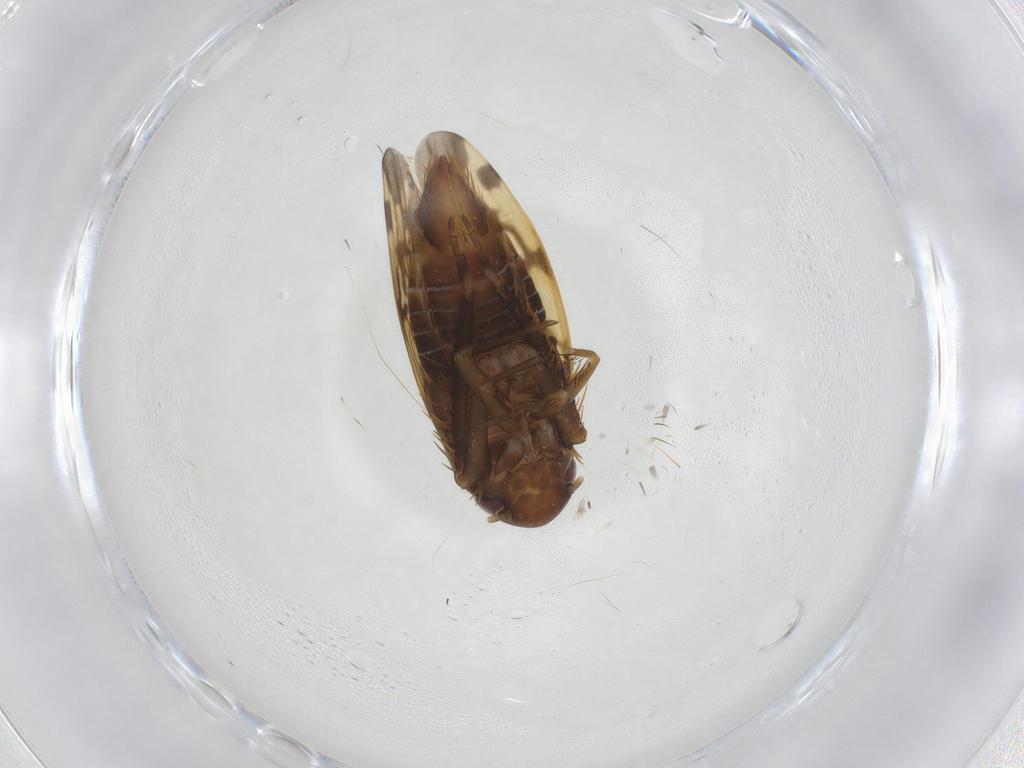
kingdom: Animalia
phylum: Arthropoda
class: Insecta
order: Hemiptera
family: Cicadellidae
